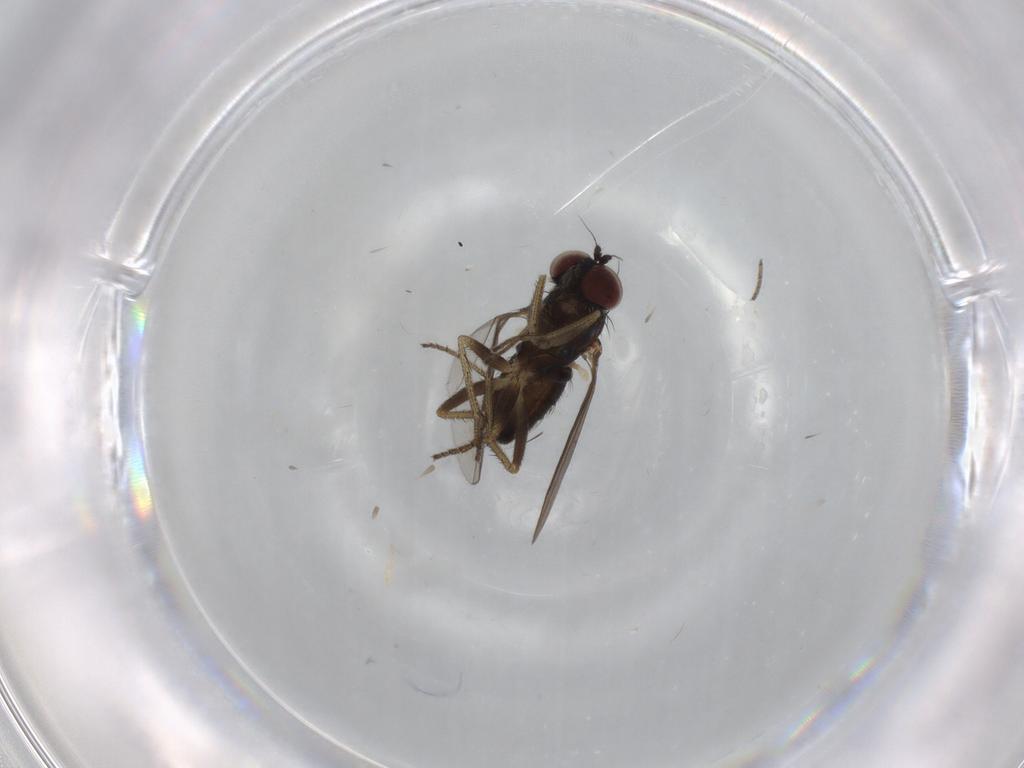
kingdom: Animalia
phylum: Arthropoda
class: Insecta
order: Diptera
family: Dolichopodidae
